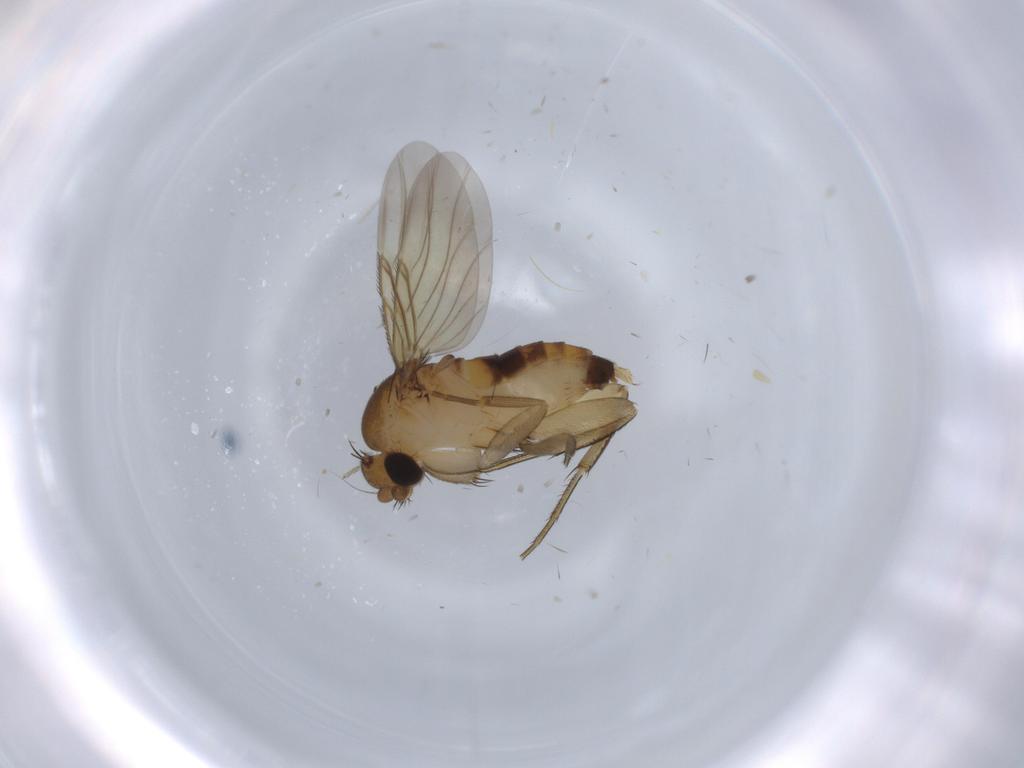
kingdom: Animalia
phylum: Arthropoda
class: Insecta
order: Diptera
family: Phoridae
